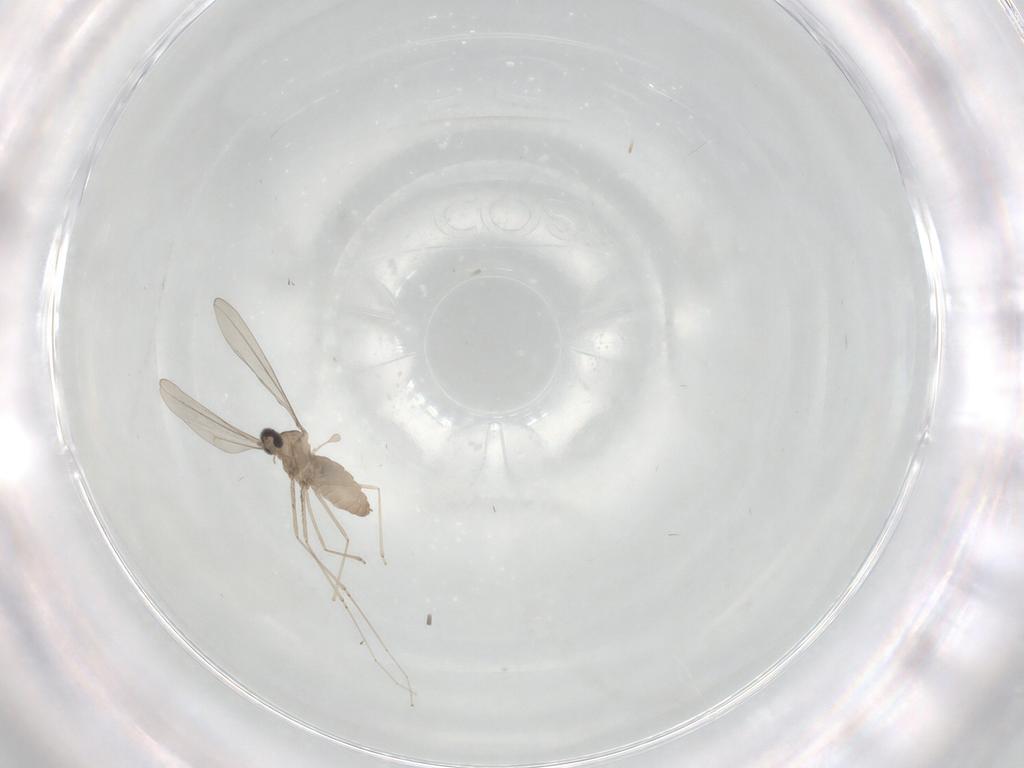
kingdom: Animalia
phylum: Arthropoda
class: Insecta
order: Diptera
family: Cecidomyiidae
